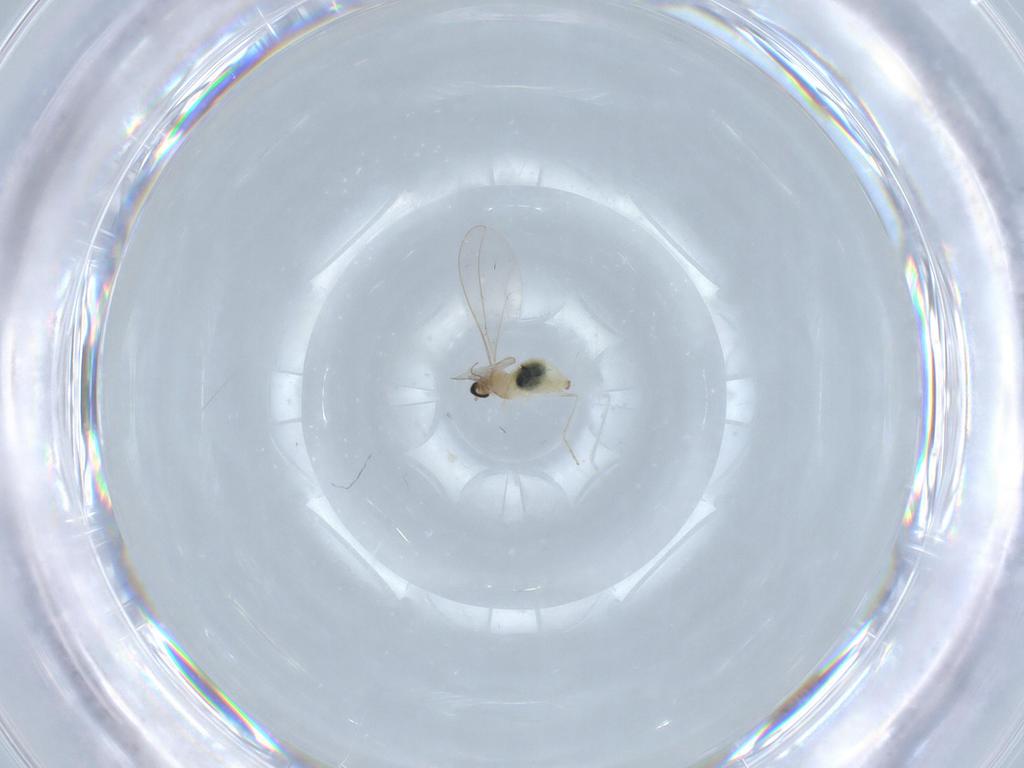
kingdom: Animalia
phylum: Arthropoda
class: Insecta
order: Diptera
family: Cecidomyiidae
